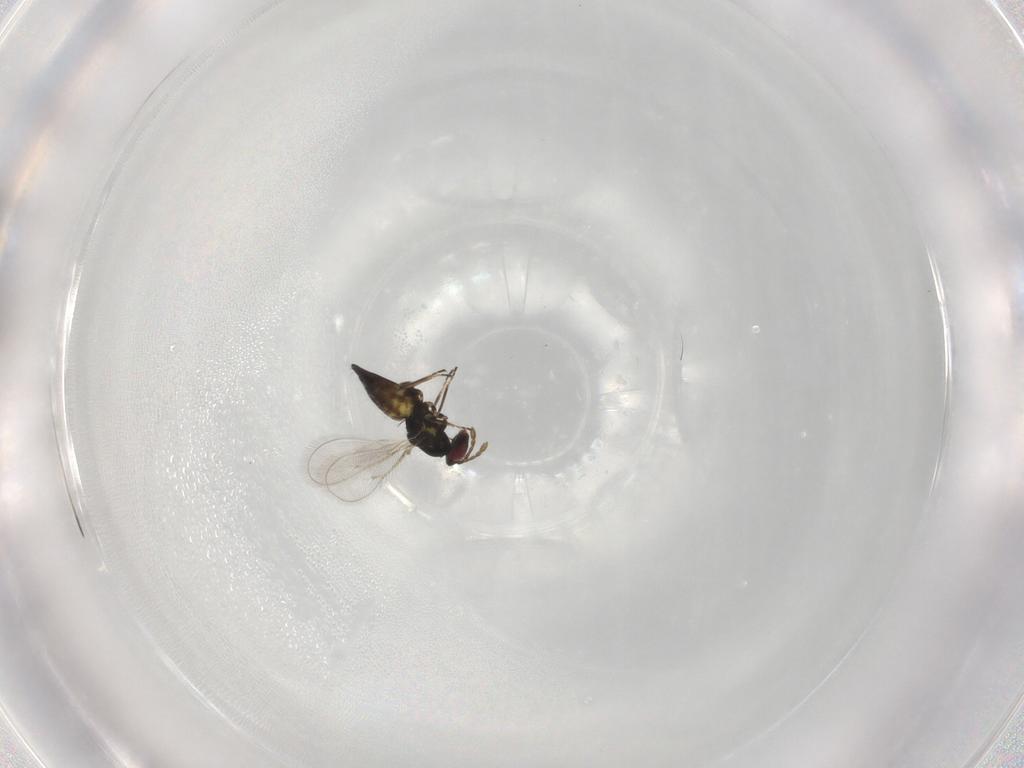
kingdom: Animalia
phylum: Arthropoda
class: Insecta
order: Hymenoptera
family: Eulophidae
